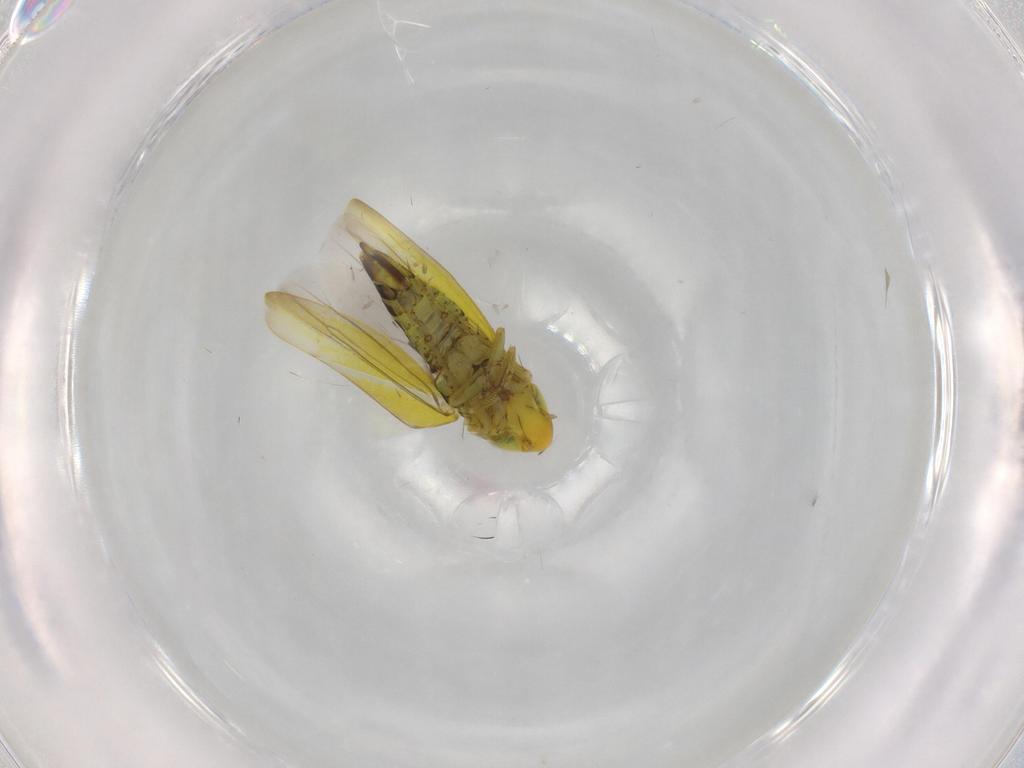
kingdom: Animalia
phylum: Arthropoda
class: Insecta
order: Hemiptera
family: Cicadellidae
